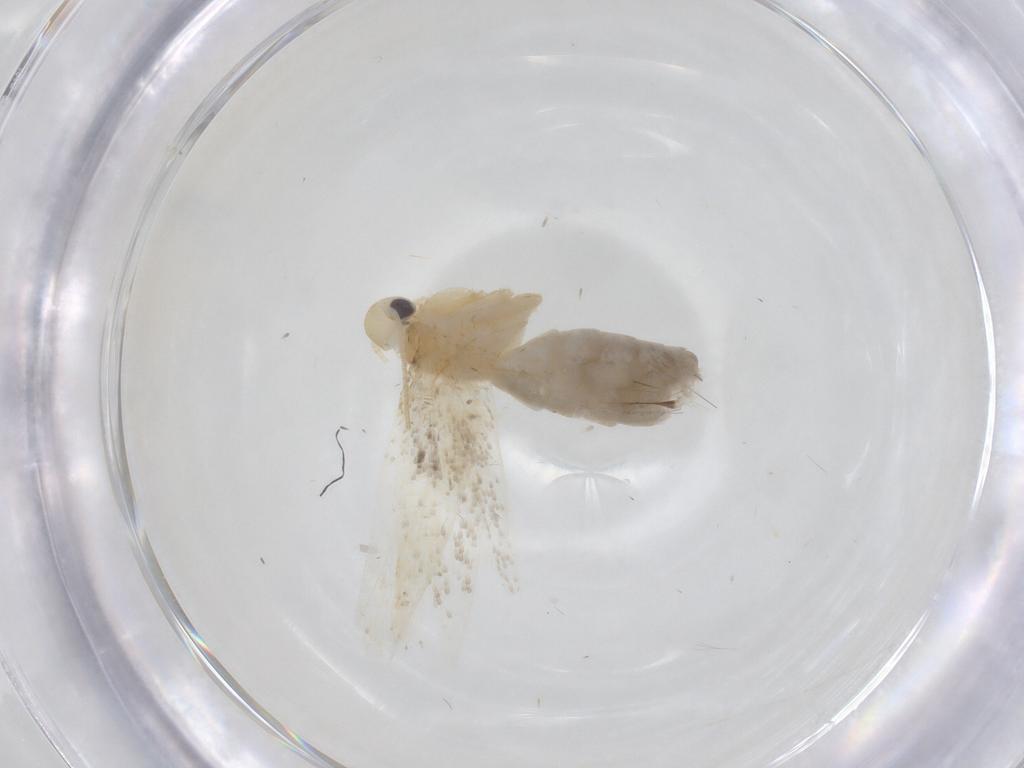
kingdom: Animalia
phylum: Arthropoda
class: Insecta
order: Lepidoptera
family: Erebidae
